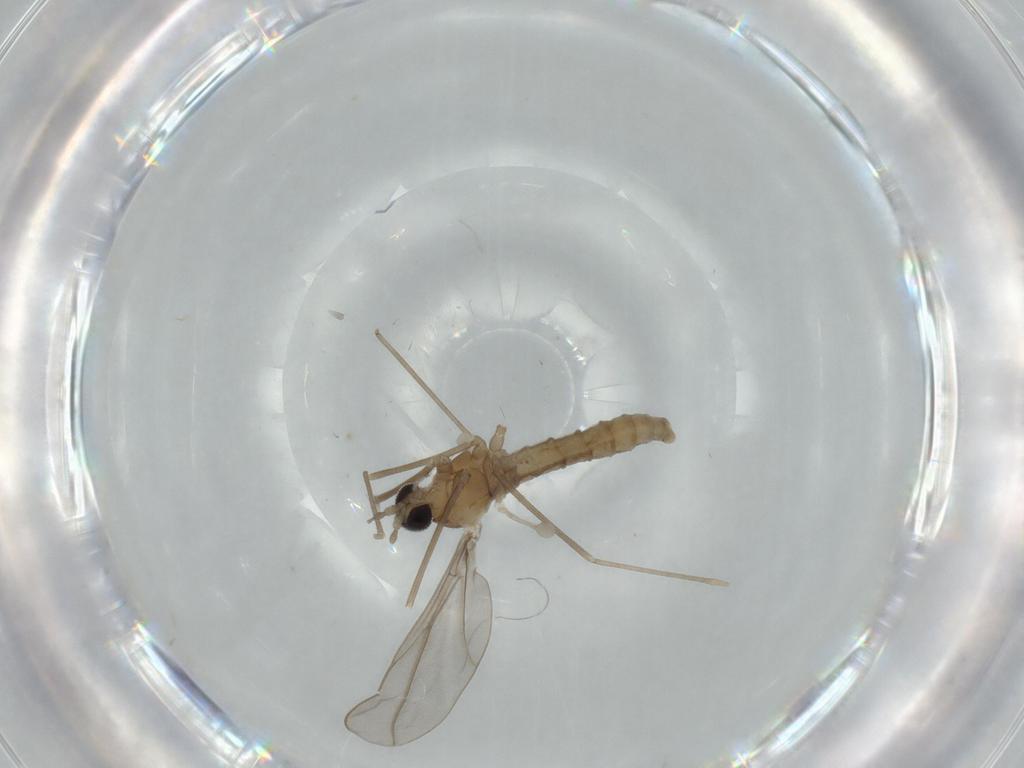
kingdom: Animalia
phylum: Arthropoda
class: Insecta
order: Diptera
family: Cecidomyiidae
